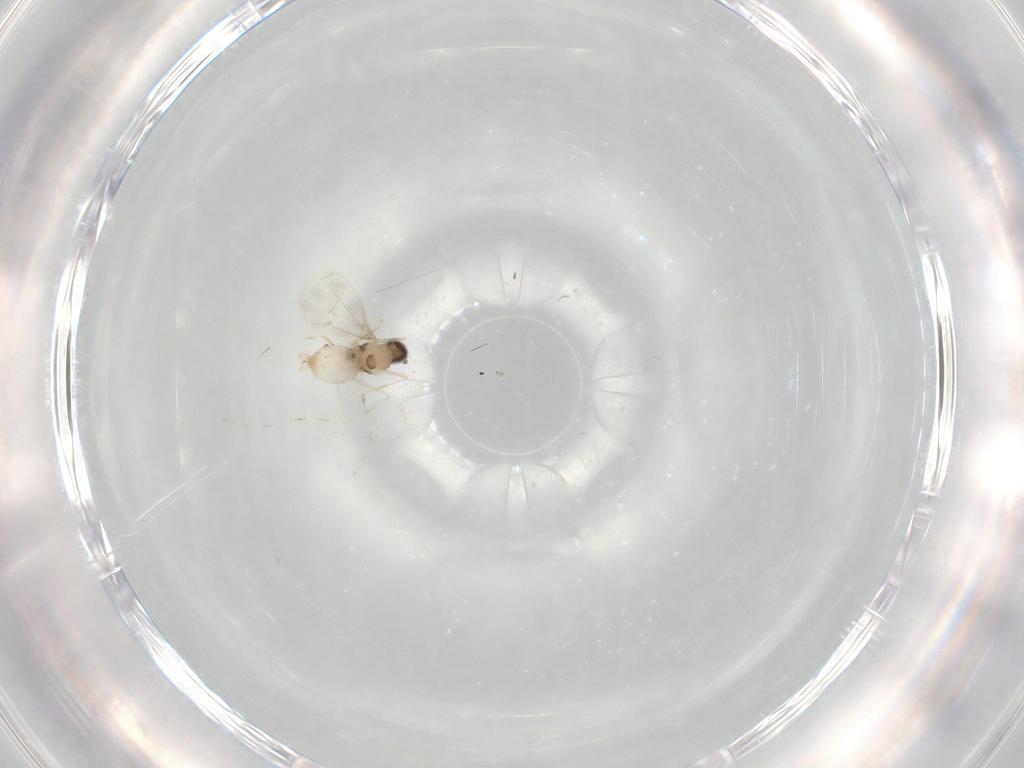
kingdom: Animalia
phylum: Arthropoda
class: Insecta
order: Diptera
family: Cecidomyiidae
